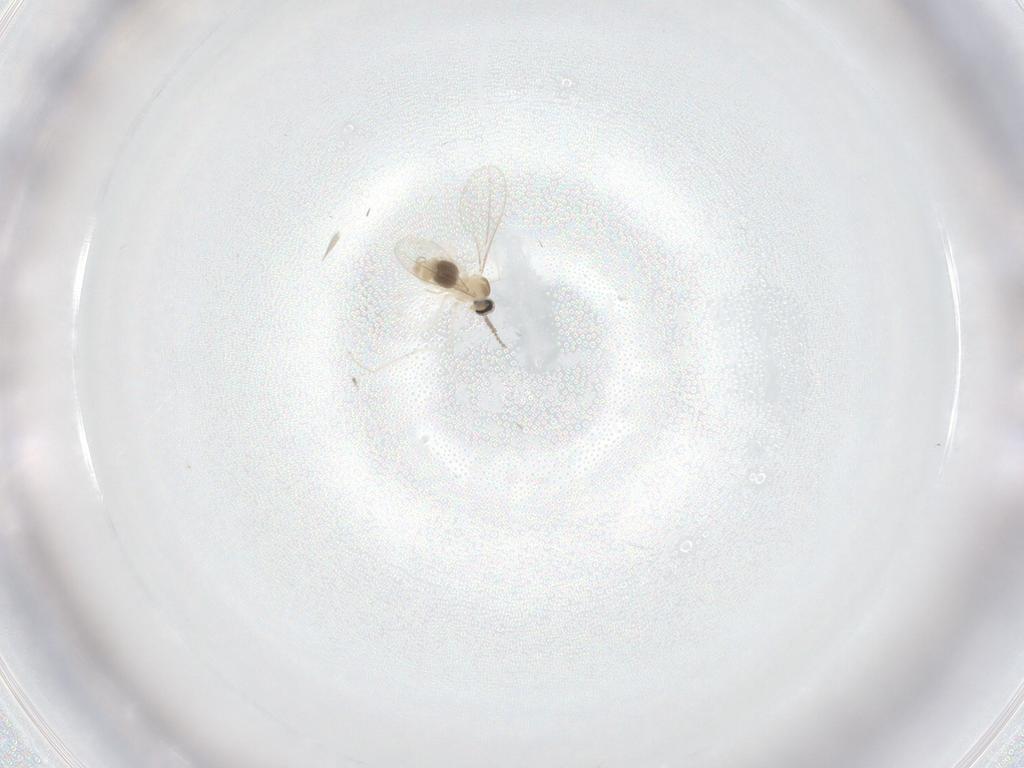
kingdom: Animalia
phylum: Arthropoda
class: Insecta
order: Diptera
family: Cecidomyiidae
